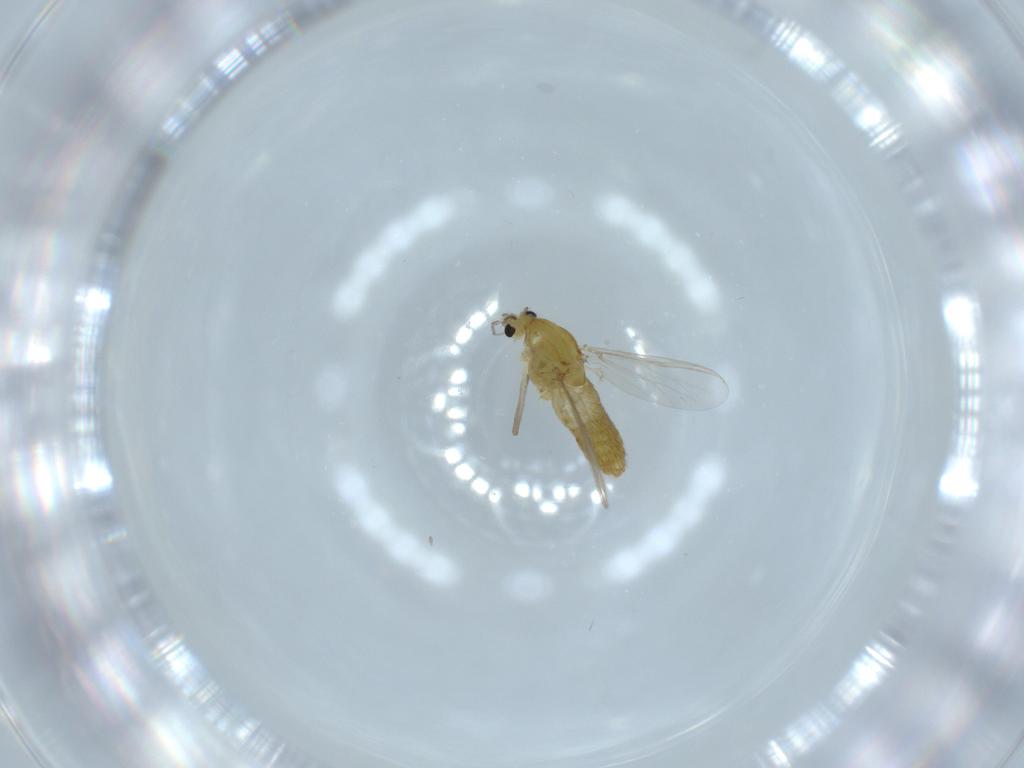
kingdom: Animalia
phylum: Arthropoda
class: Insecta
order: Diptera
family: Chironomidae
